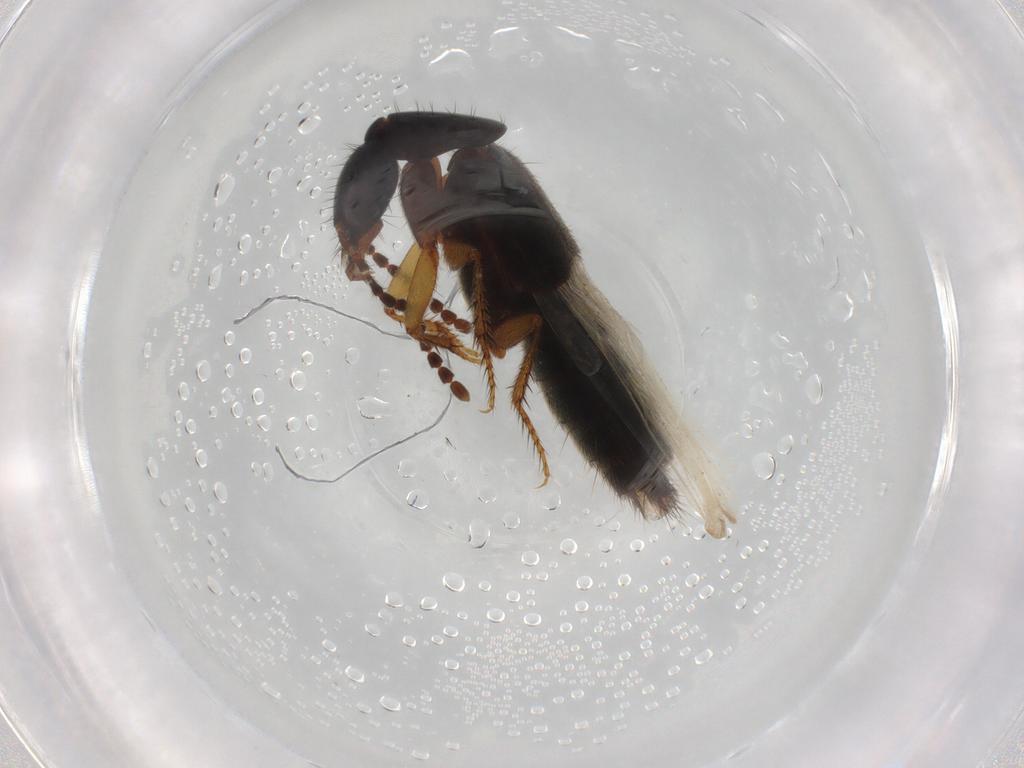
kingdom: Animalia
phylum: Arthropoda
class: Insecta
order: Coleoptera
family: Staphylinidae
